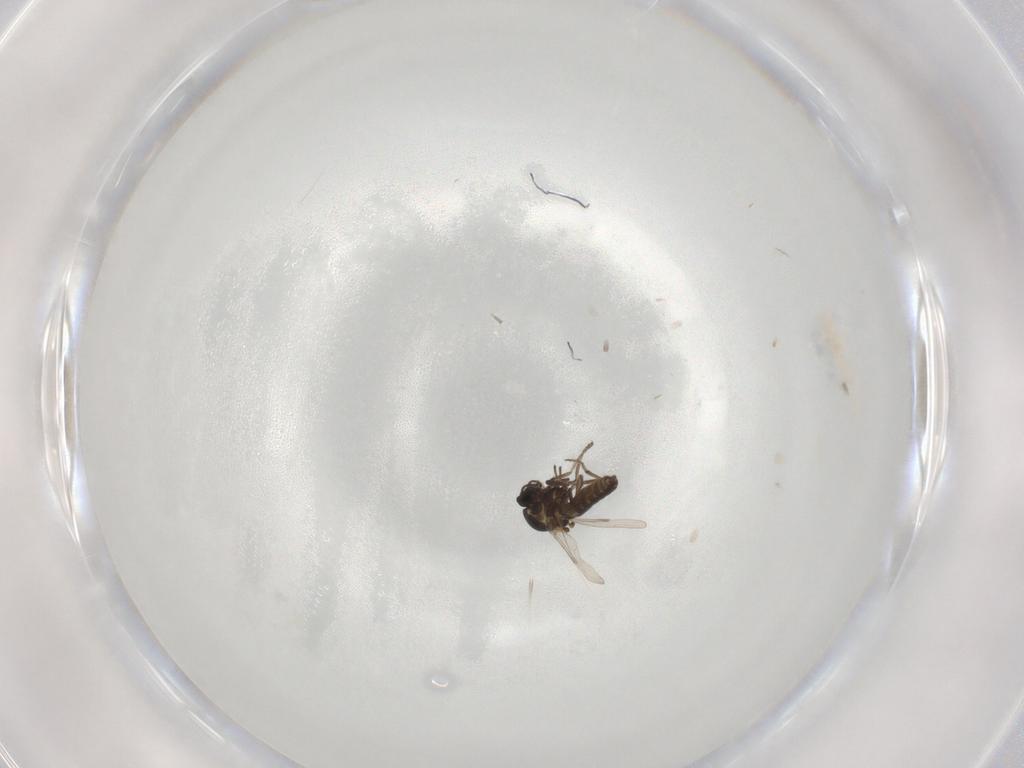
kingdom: Animalia
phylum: Arthropoda
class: Insecta
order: Diptera
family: Ceratopogonidae
